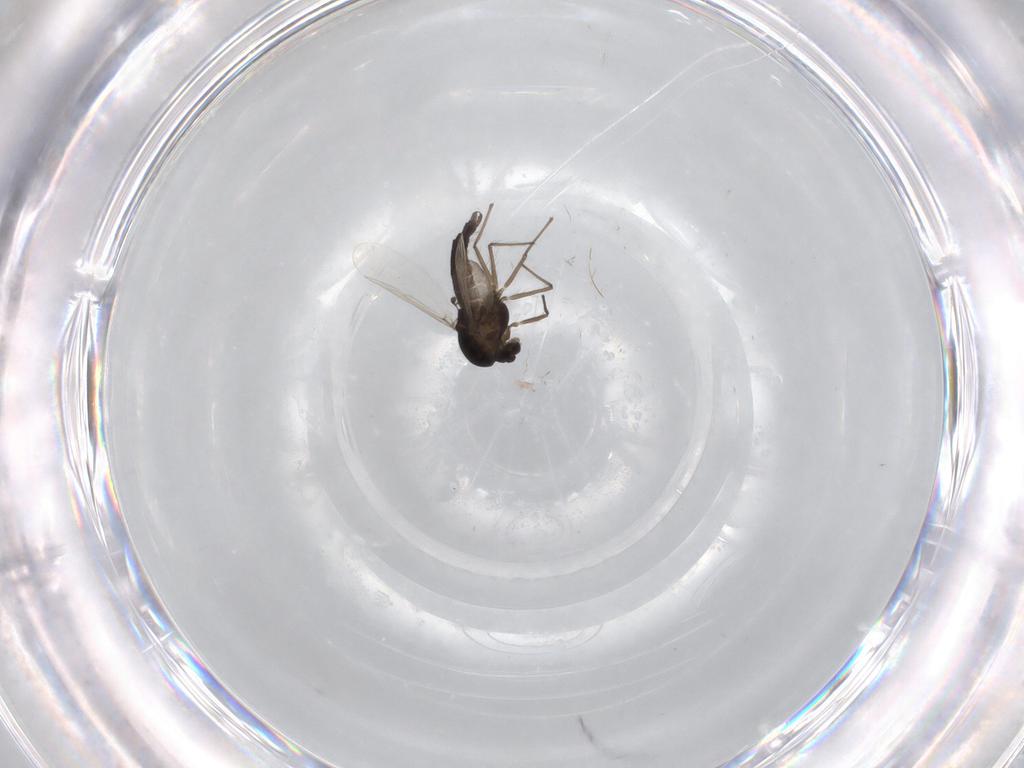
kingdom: Animalia
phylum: Arthropoda
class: Insecta
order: Diptera
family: Chironomidae
